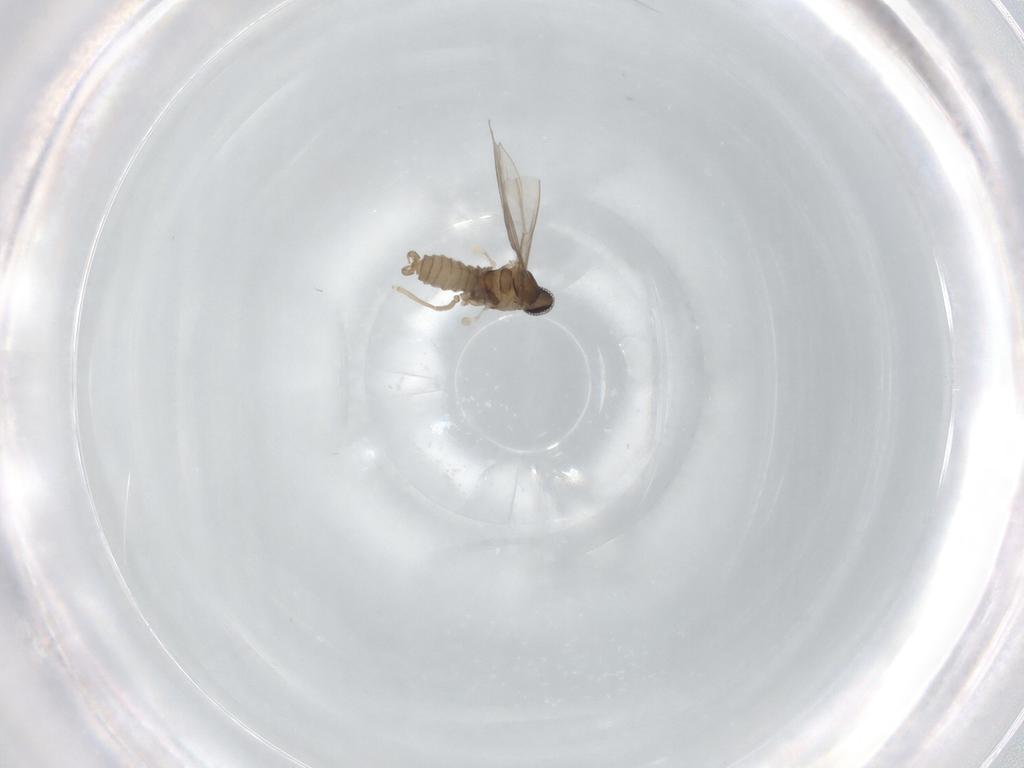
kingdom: Animalia
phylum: Arthropoda
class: Insecta
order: Diptera
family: Cecidomyiidae
